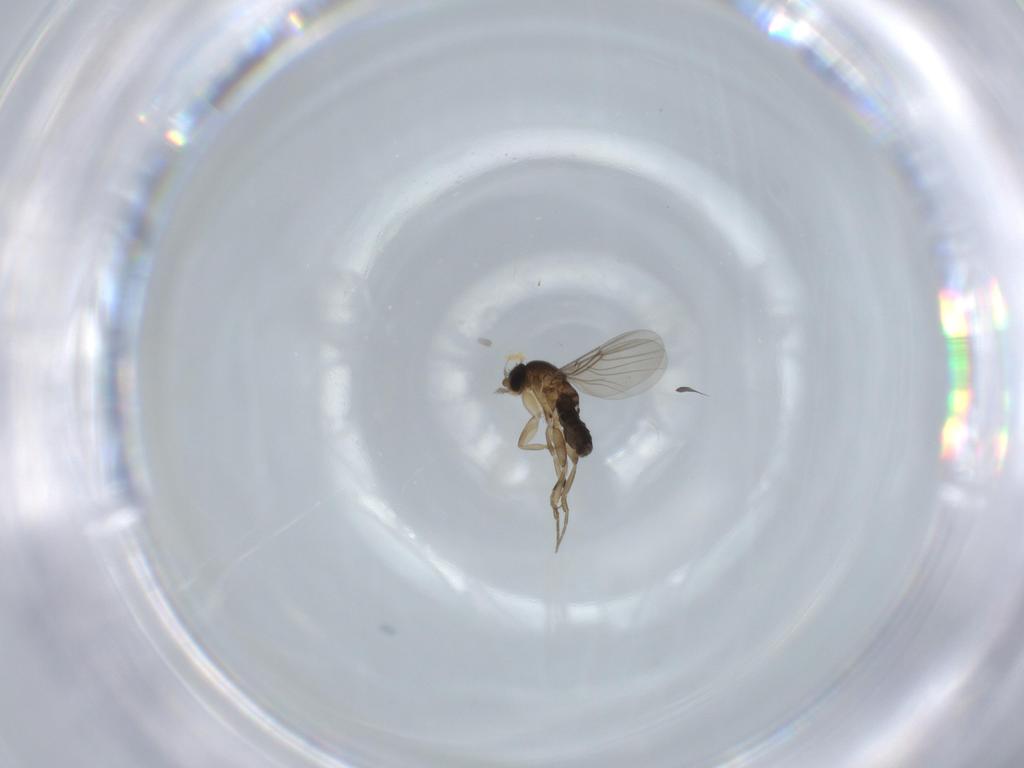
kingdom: Animalia
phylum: Arthropoda
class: Insecta
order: Diptera
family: Phoridae
